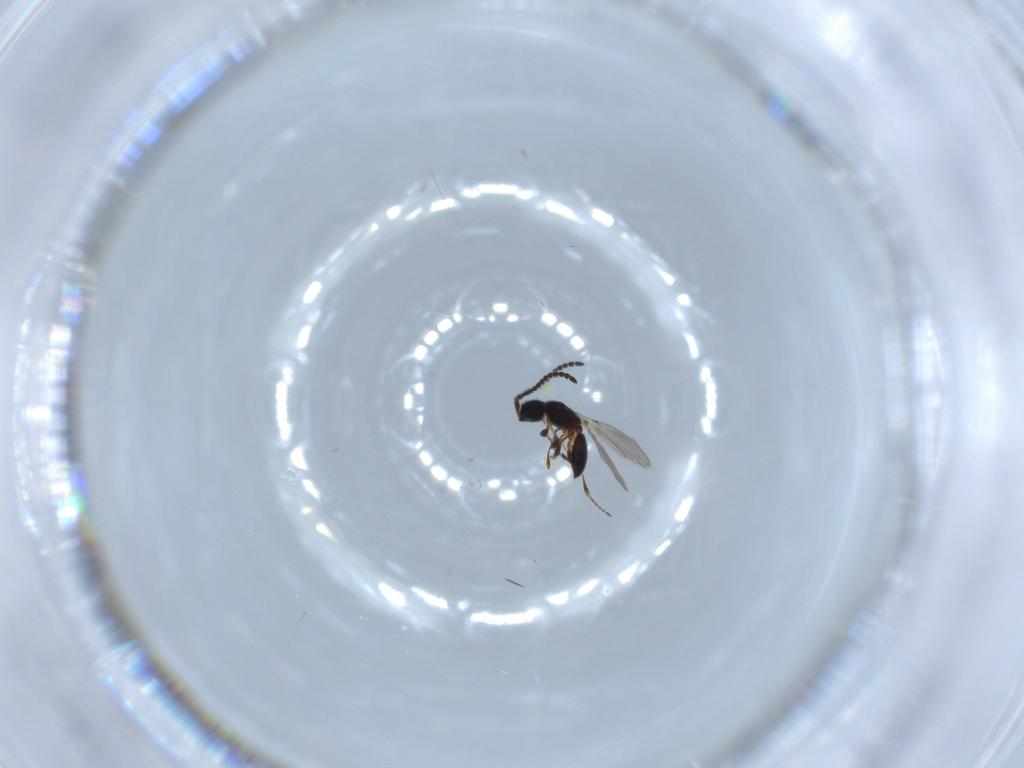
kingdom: Animalia
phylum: Arthropoda
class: Insecta
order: Hymenoptera
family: Diapriidae
